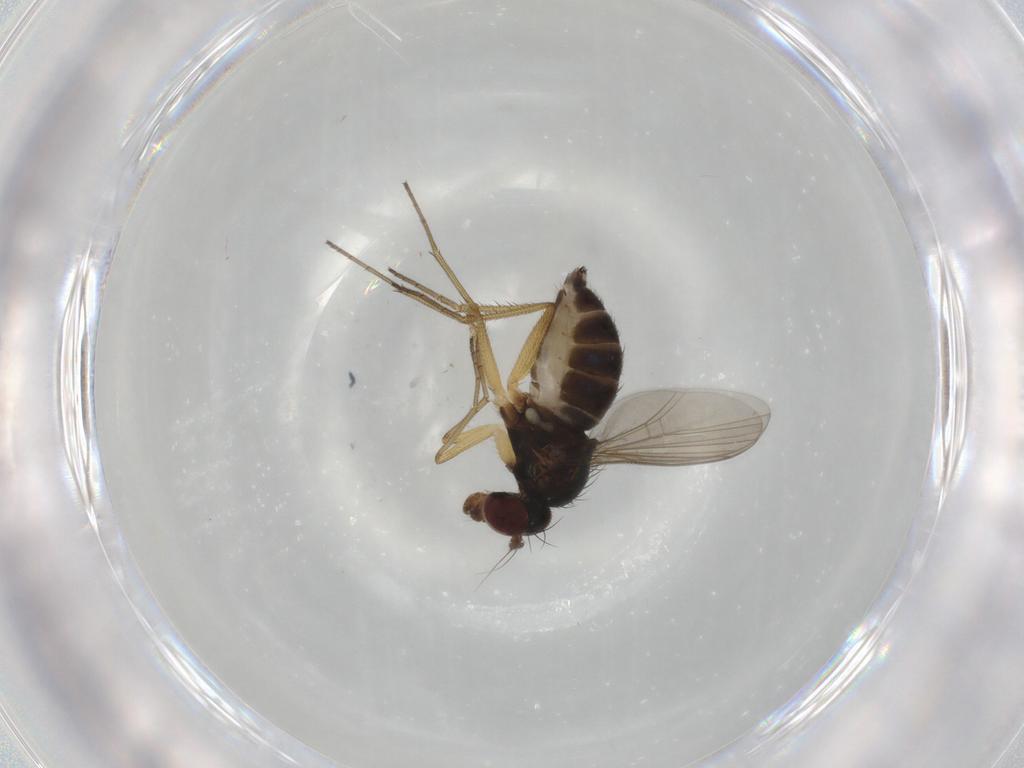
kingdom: Animalia
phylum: Arthropoda
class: Insecta
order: Diptera
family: Dolichopodidae
